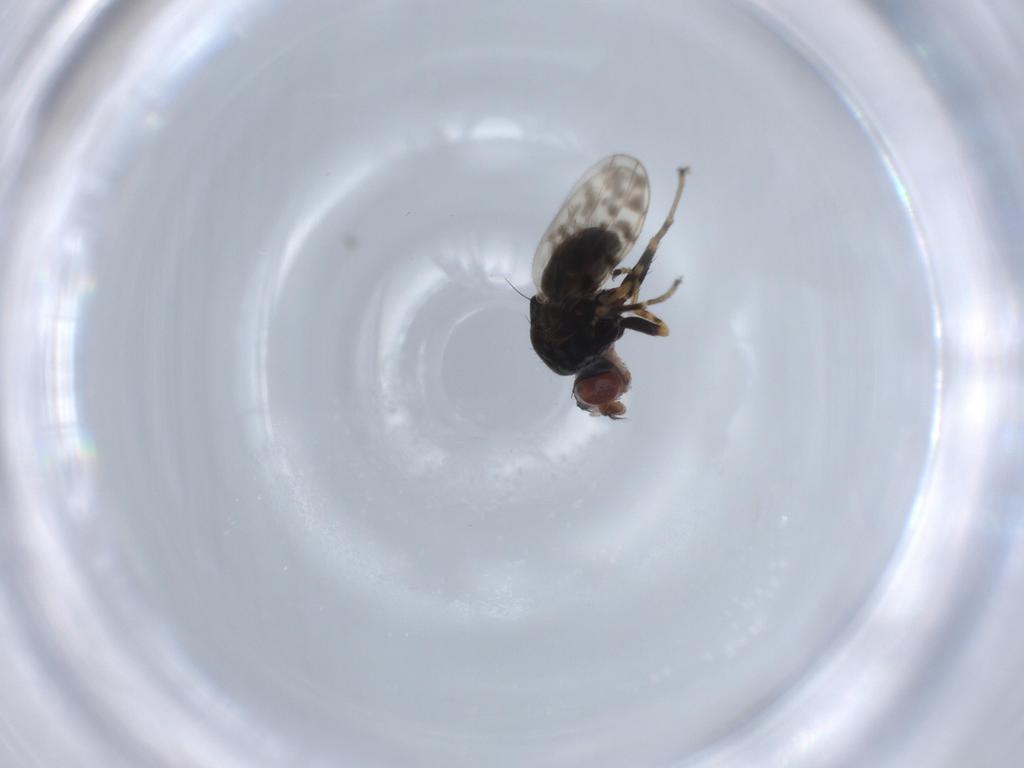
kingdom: Animalia
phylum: Arthropoda
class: Insecta
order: Diptera
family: Ephydridae
